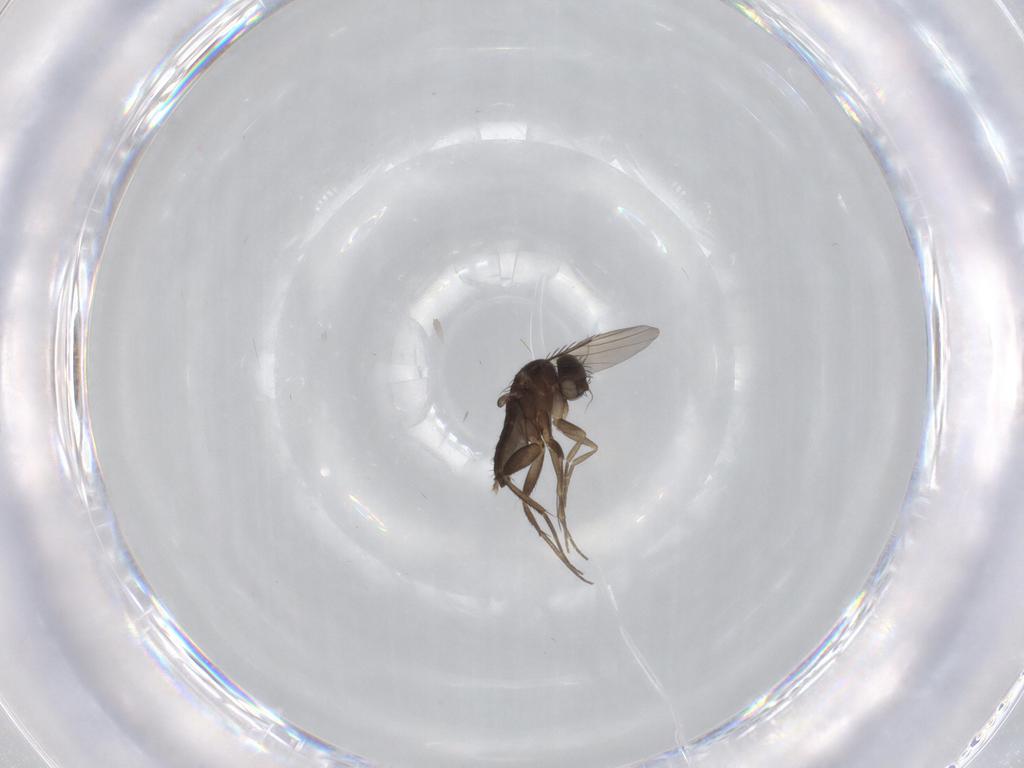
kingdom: Animalia
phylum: Arthropoda
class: Insecta
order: Diptera
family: Phoridae
